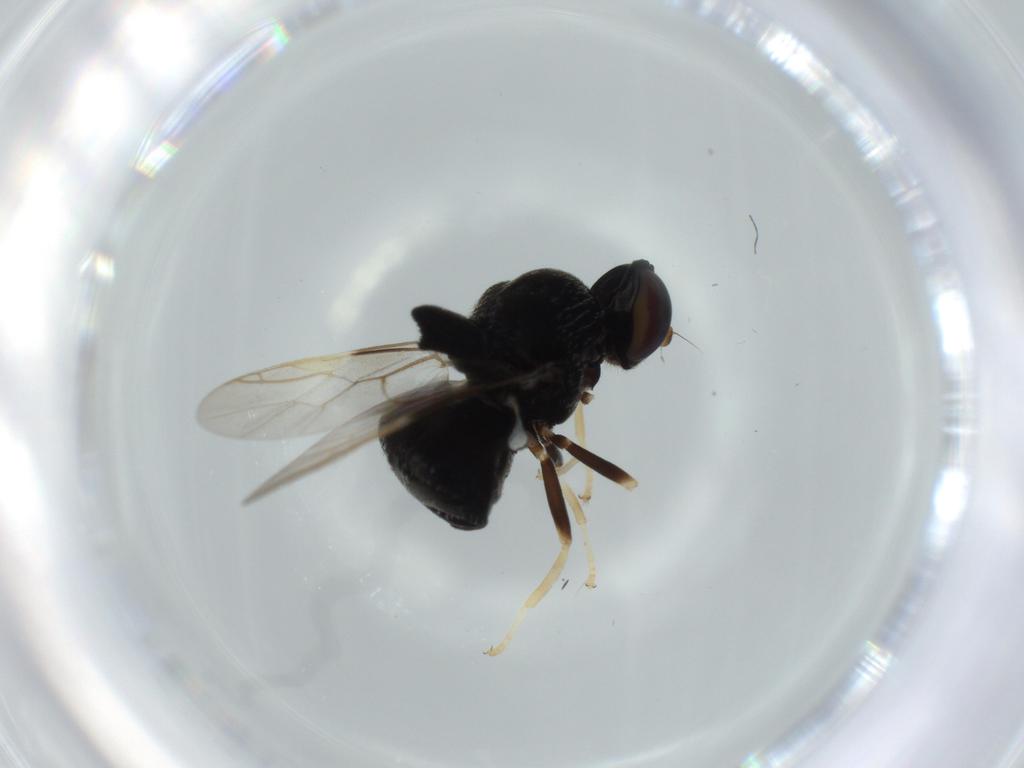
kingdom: Animalia
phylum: Arthropoda
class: Insecta
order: Diptera
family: Stratiomyidae
